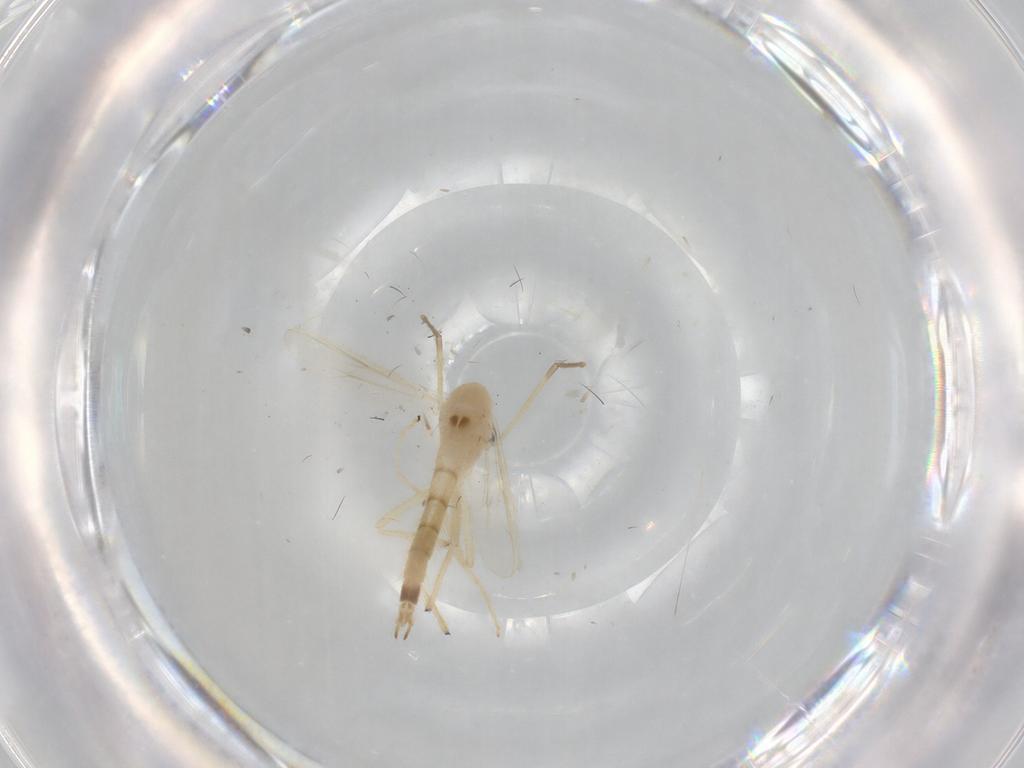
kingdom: Animalia
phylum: Arthropoda
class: Insecta
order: Diptera
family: Chironomidae
